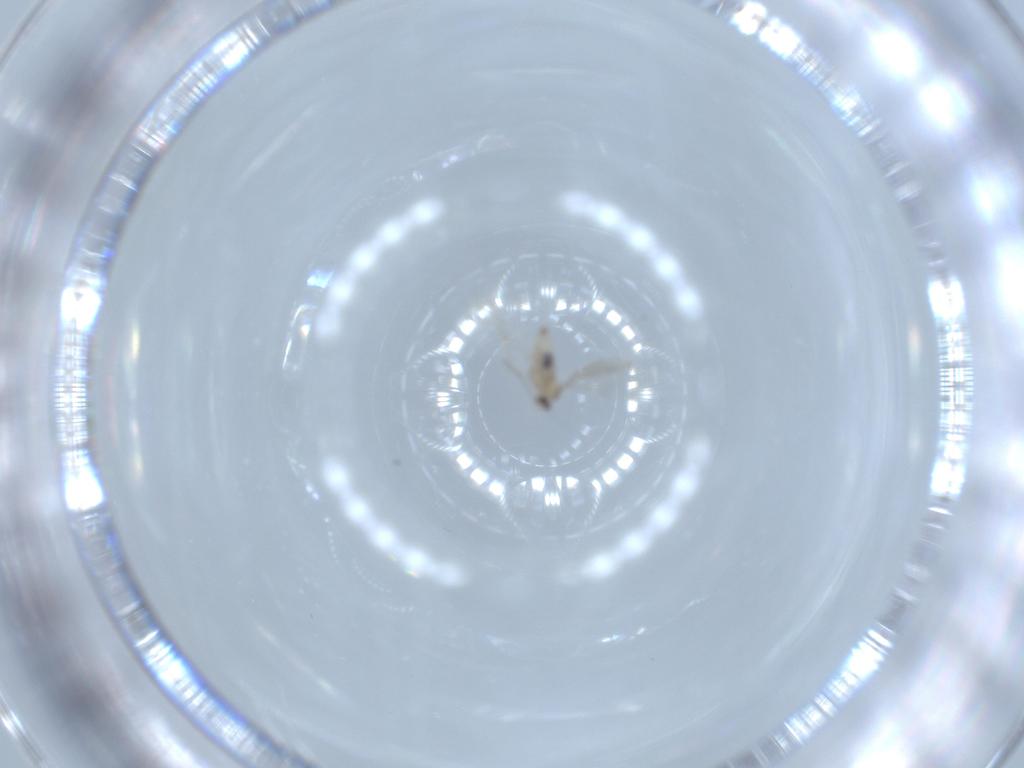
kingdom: Animalia
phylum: Arthropoda
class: Insecta
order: Diptera
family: Cecidomyiidae
